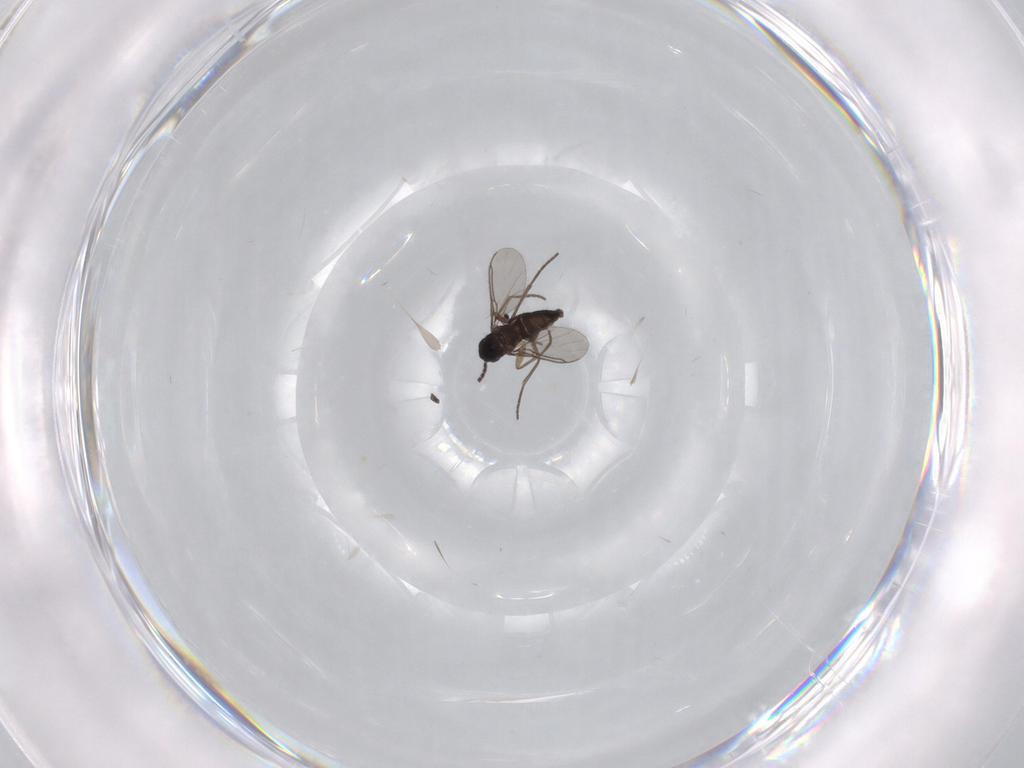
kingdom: Animalia
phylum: Arthropoda
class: Insecta
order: Diptera
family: Sciaridae
